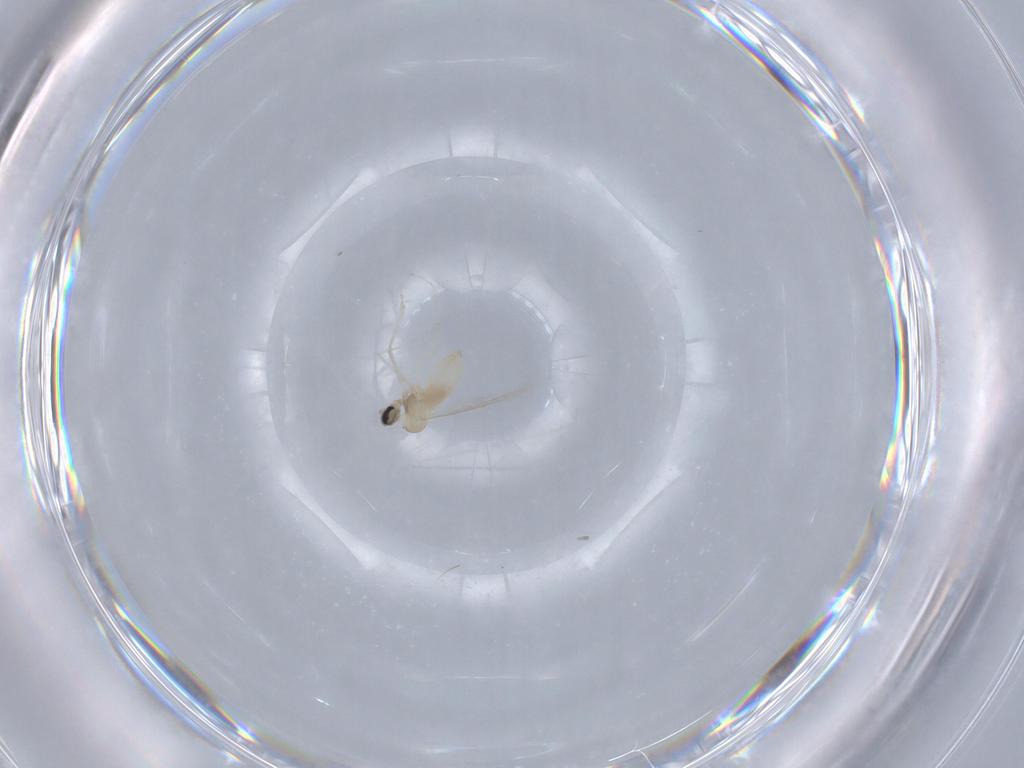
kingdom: Animalia
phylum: Arthropoda
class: Insecta
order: Diptera
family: Cecidomyiidae
